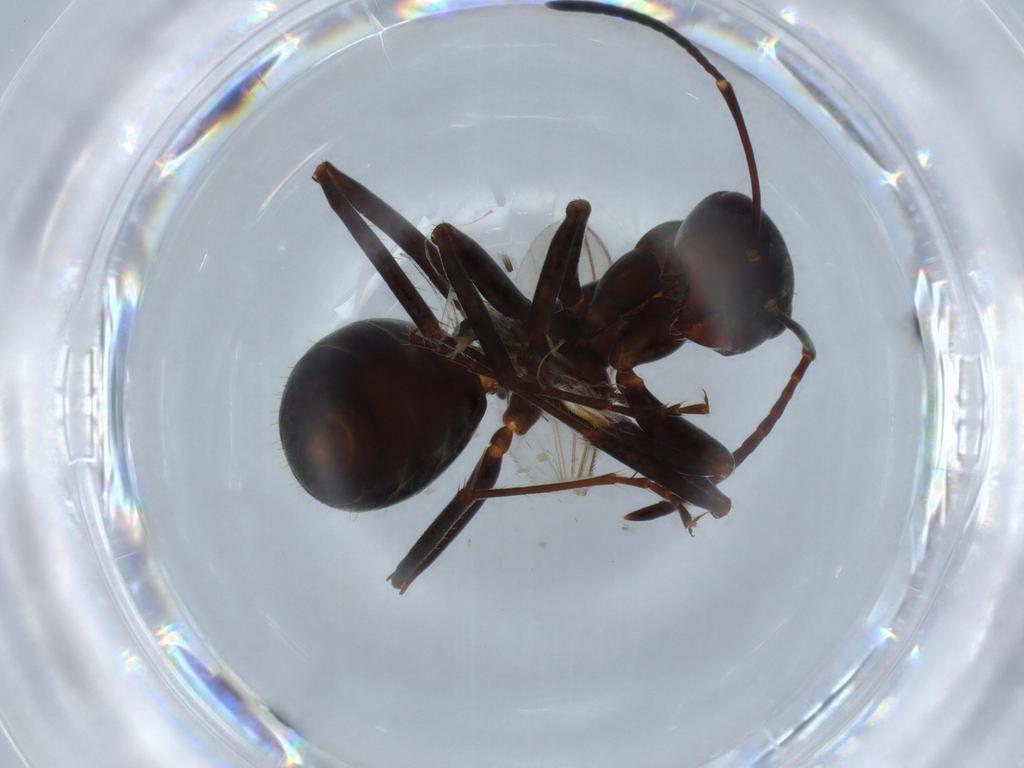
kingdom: Animalia
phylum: Arthropoda
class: Insecta
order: Hymenoptera
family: Formicidae
